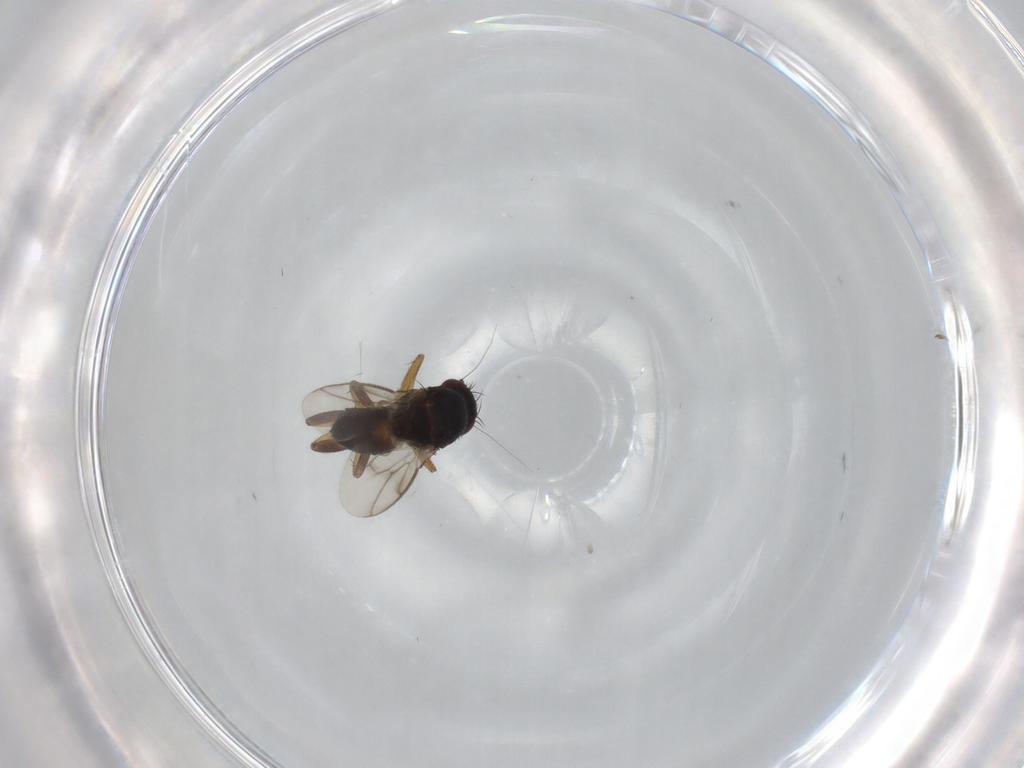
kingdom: Animalia
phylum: Arthropoda
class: Insecta
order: Diptera
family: Sphaeroceridae
